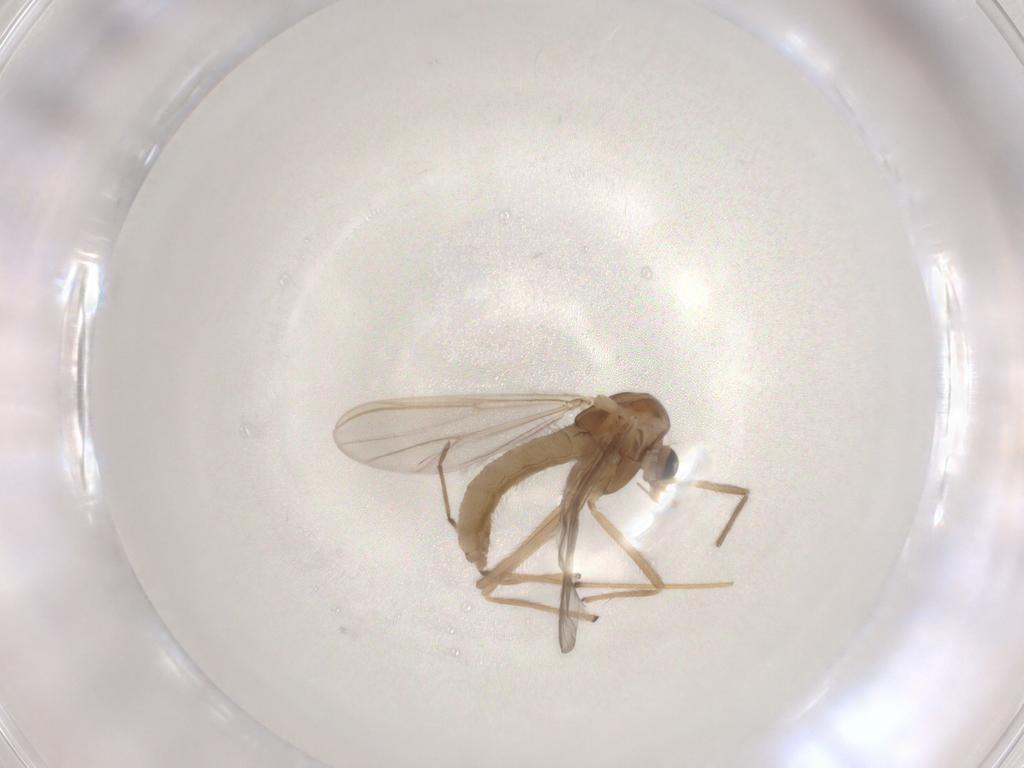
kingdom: Animalia
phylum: Arthropoda
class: Insecta
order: Diptera
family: Chironomidae
